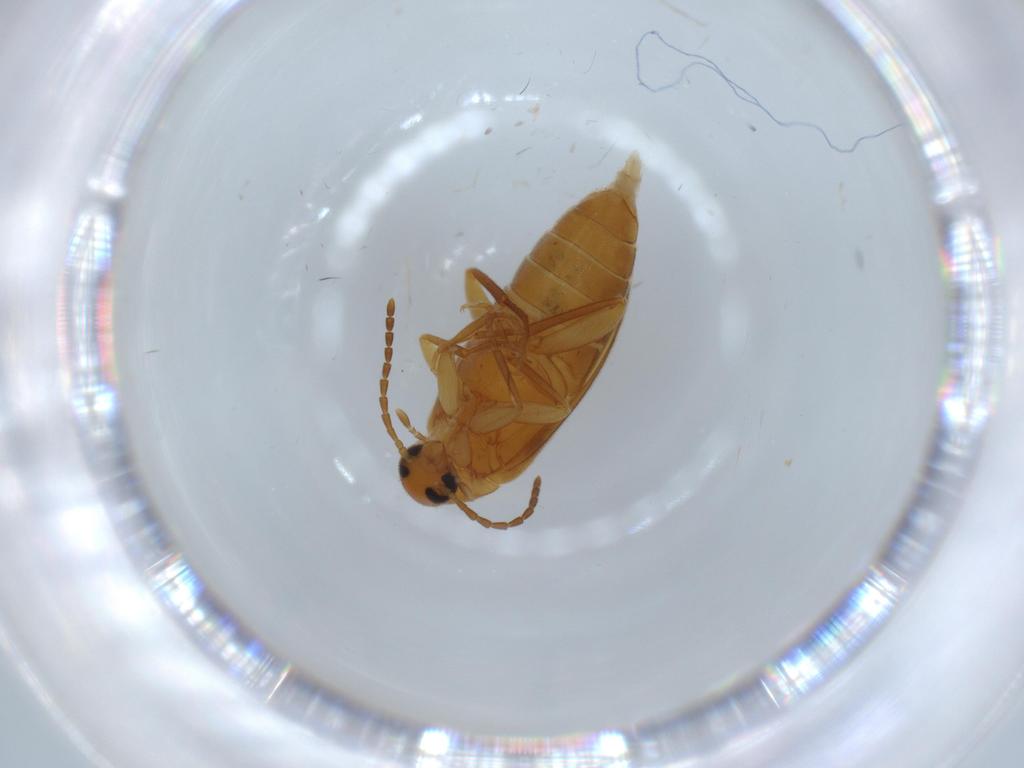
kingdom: Animalia
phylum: Arthropoda
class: Insecta
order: Coleoptera
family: Scraptiidae
